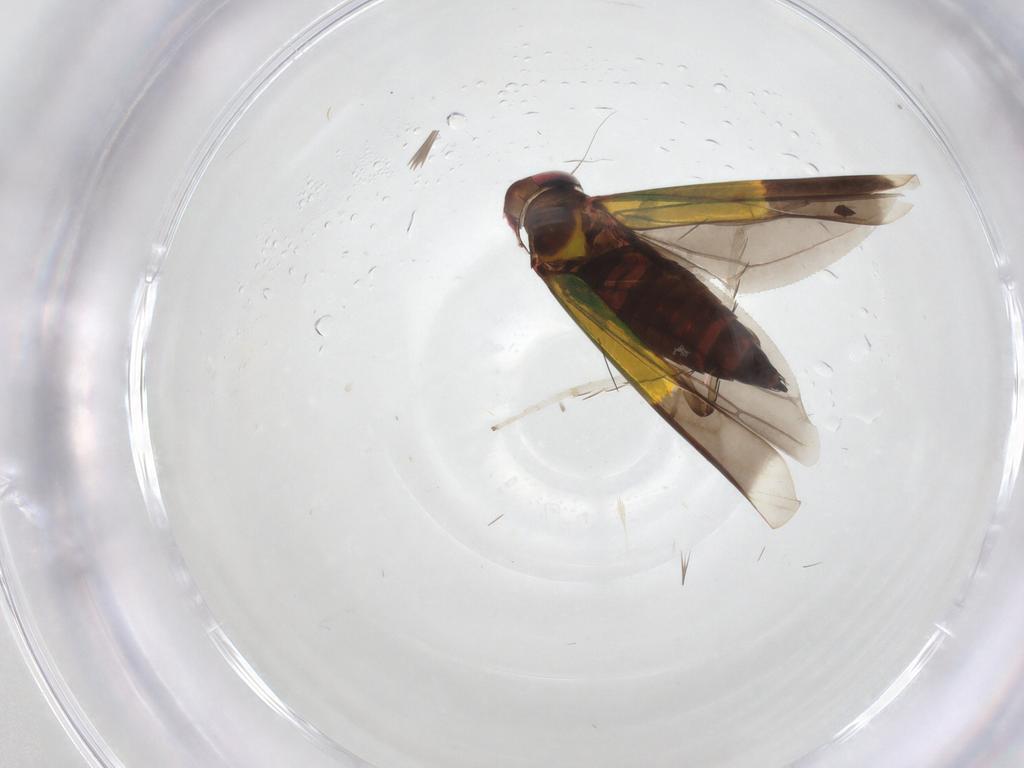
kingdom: Animalia
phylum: Arthropoda
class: Insecta
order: Hemiptera
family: Cicadellidae
